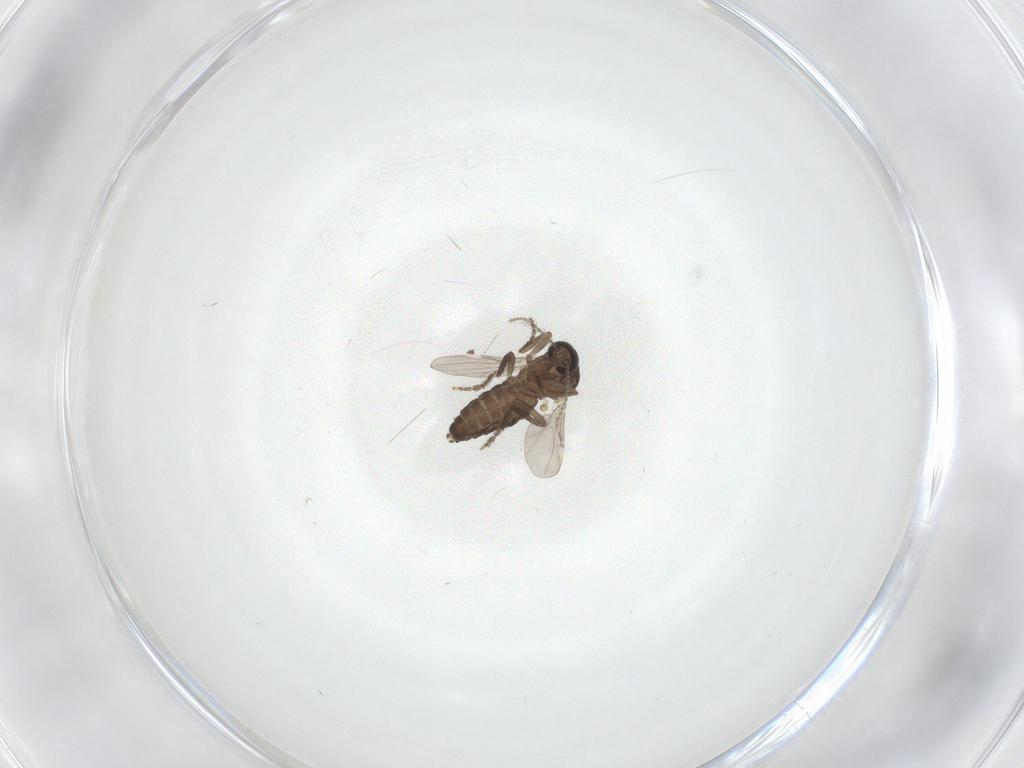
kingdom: Animalia
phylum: Arthropoda
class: Insecta
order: Diptera
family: Ceratopogonidae
